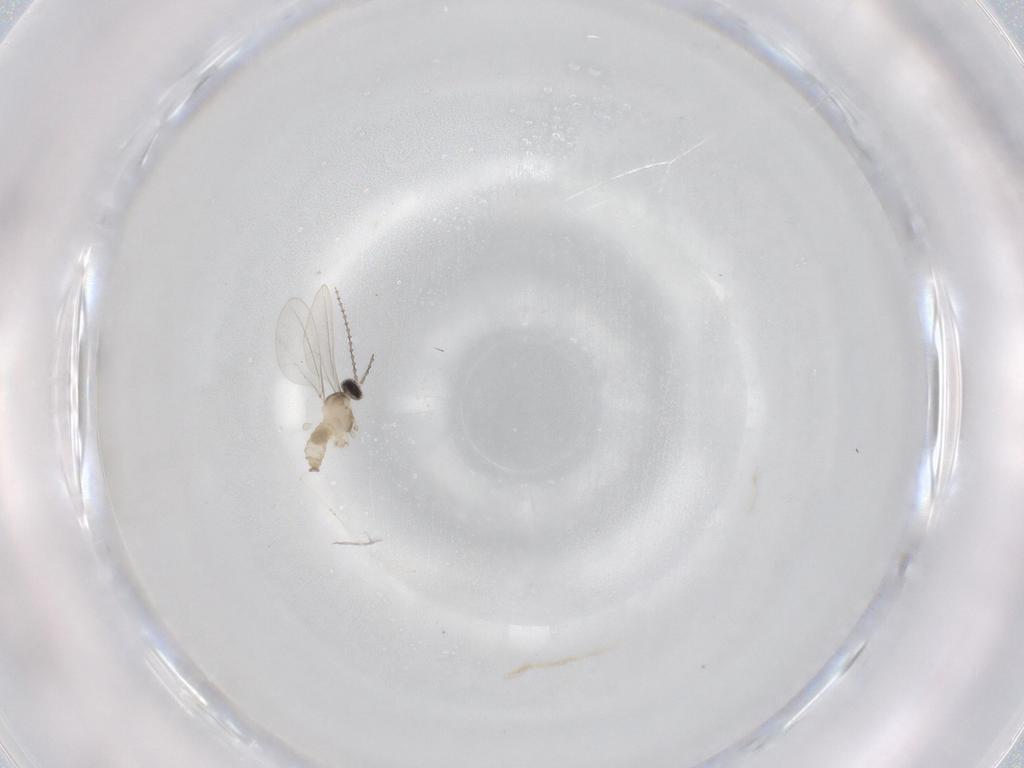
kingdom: Animalia
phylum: Arthropoda
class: Insecta
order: Diptera
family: Cecidomyiidae
